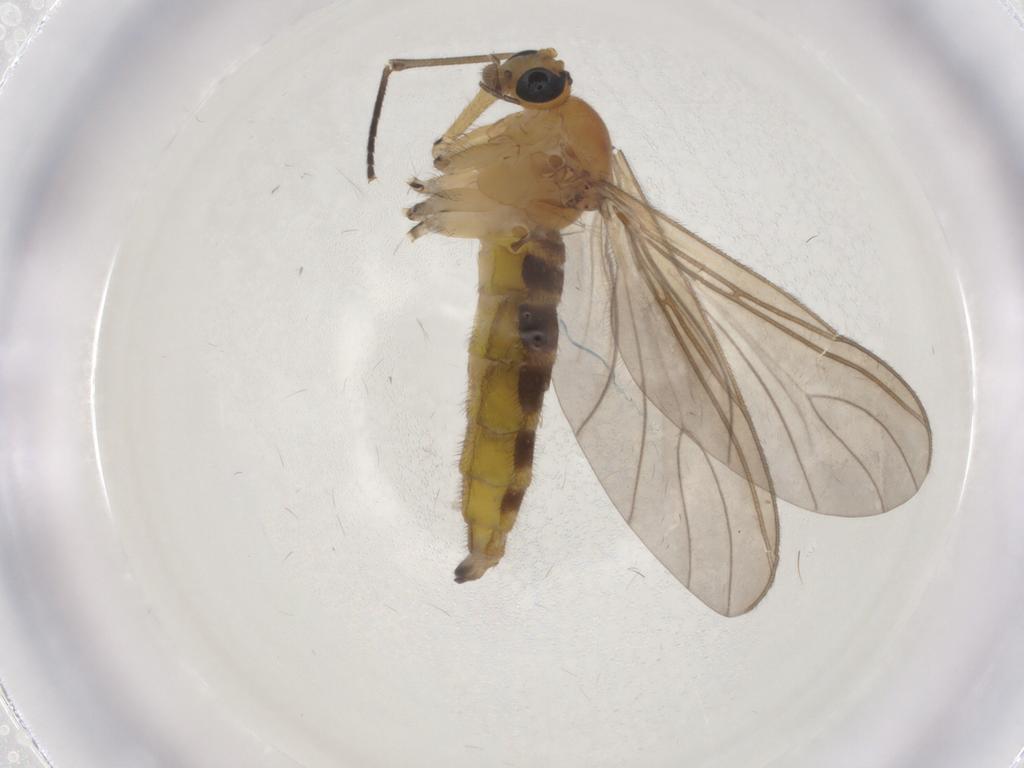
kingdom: Animalia
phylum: Arthropoda
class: Insecta
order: Diptera
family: Sciaridae
